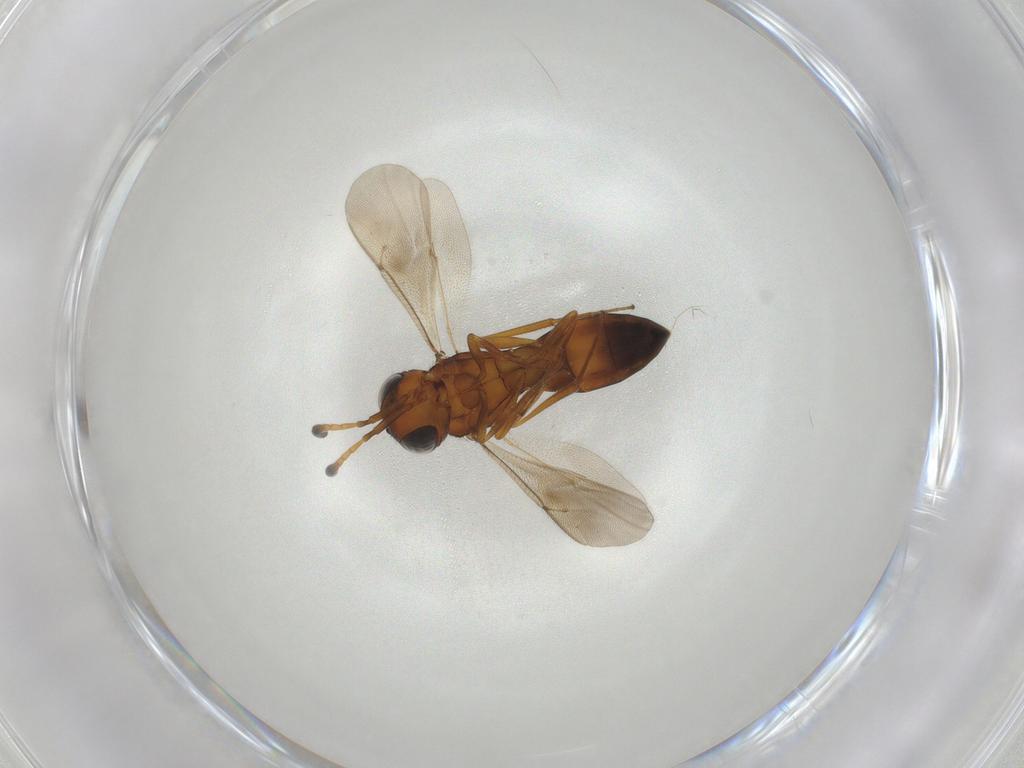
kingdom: Animalia
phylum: Arthropoda
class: Insecta
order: Hymenoptera
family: Scelionidae
